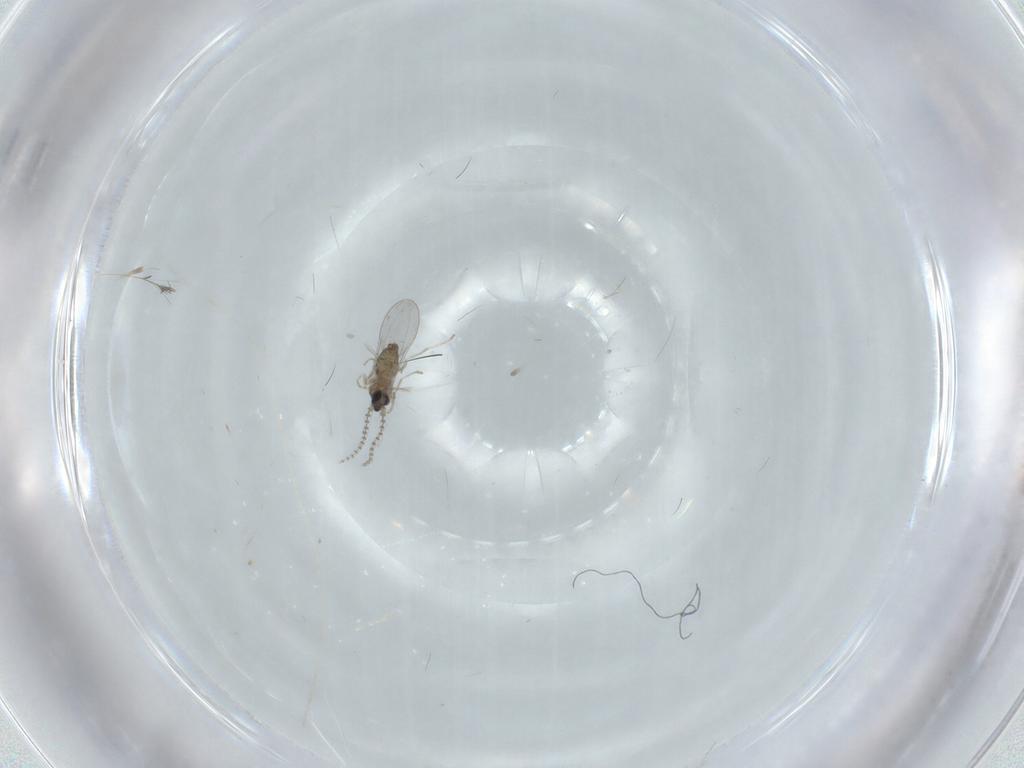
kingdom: Animalia
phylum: Arthropoda
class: Insecta
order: Diptera
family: Cecidomyiidae
